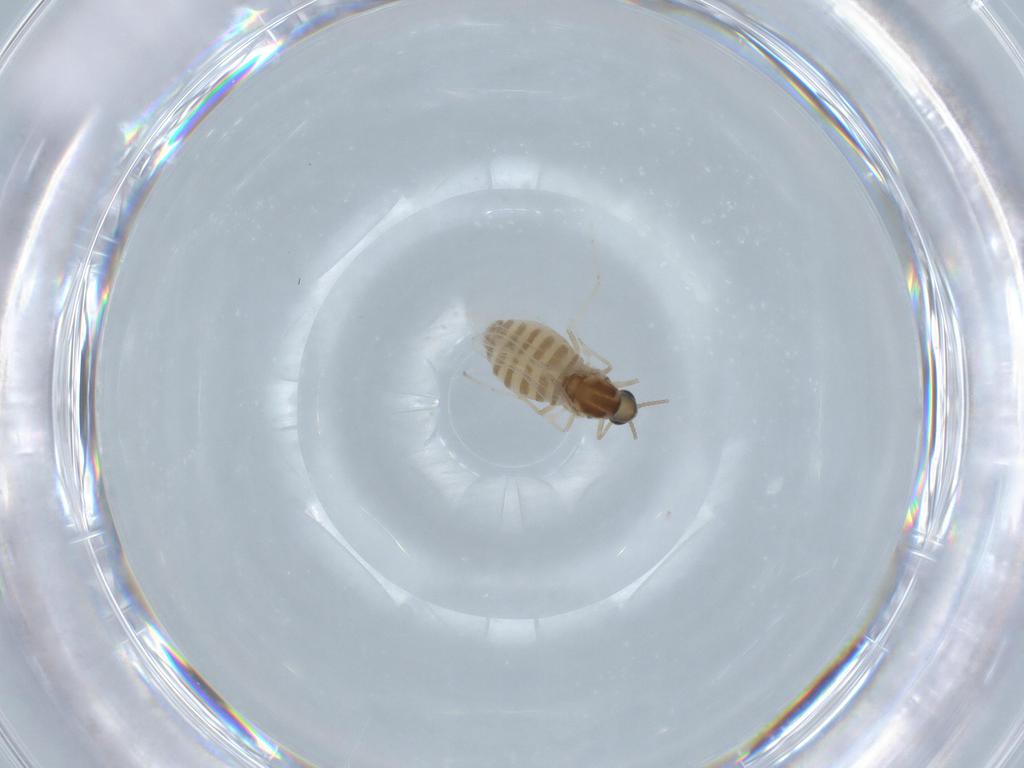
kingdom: Animalia
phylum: Arthropoda
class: Insecta
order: Diptera
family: Cecidomyiidae
